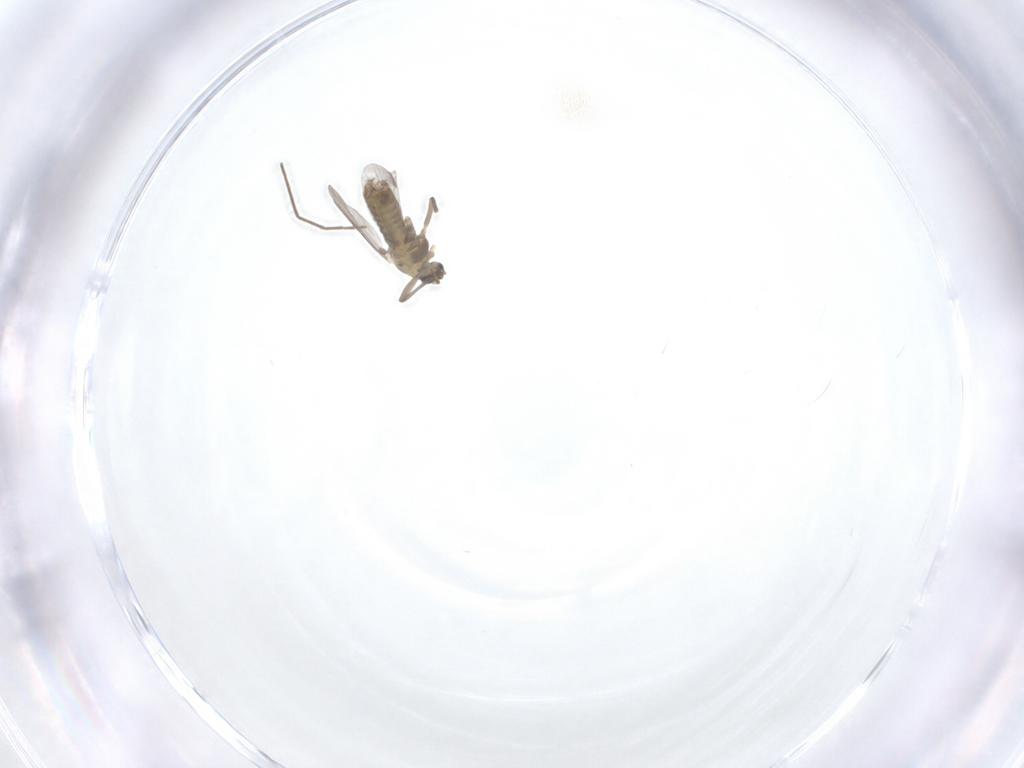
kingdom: Animalia
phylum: Arthropoda
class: Insecta
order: Diptera
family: Chironomidae
